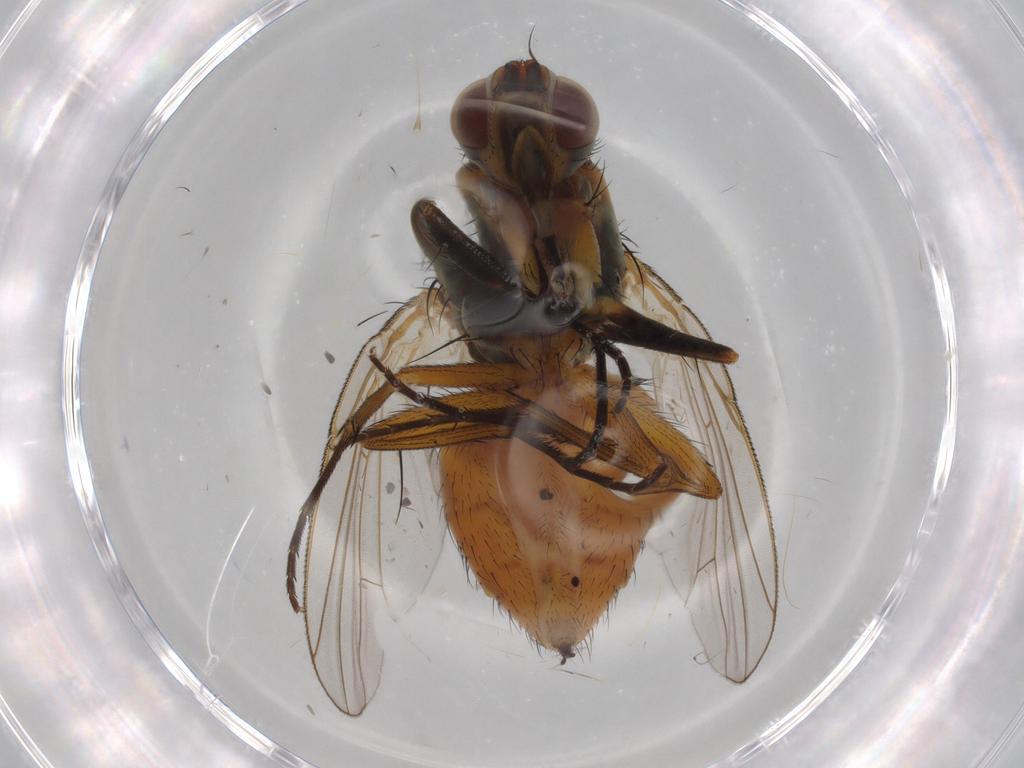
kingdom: Animalia
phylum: Arthropoda
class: Insecta
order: Diptera
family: Muscidae
